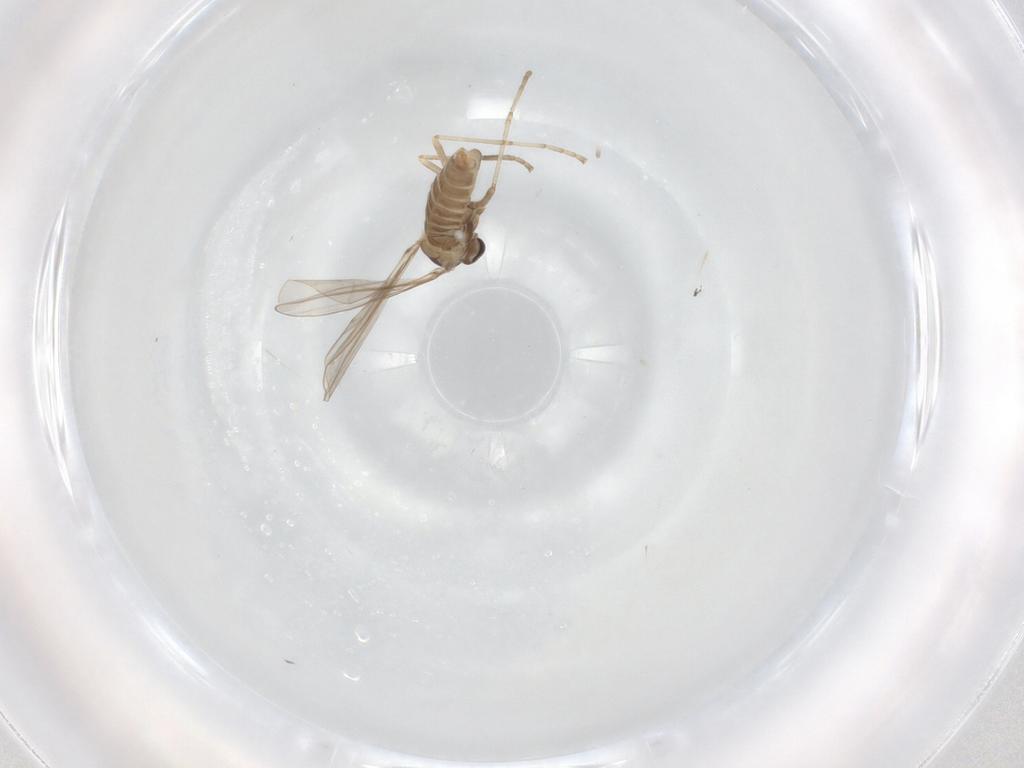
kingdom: Animalia
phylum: Arthropoda
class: Insecta
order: Diptera
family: Cecidomyiidae
